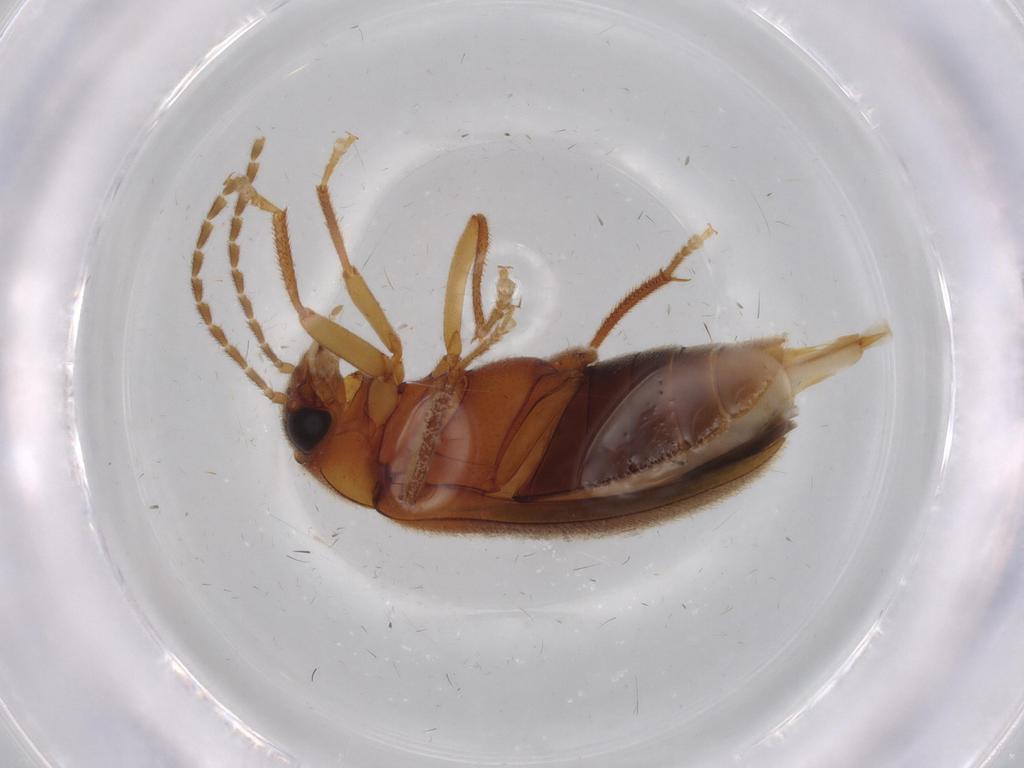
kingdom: Animalia
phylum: Arthropoda
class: Insecta
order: Coleoptera
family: Ptilodactylidae
